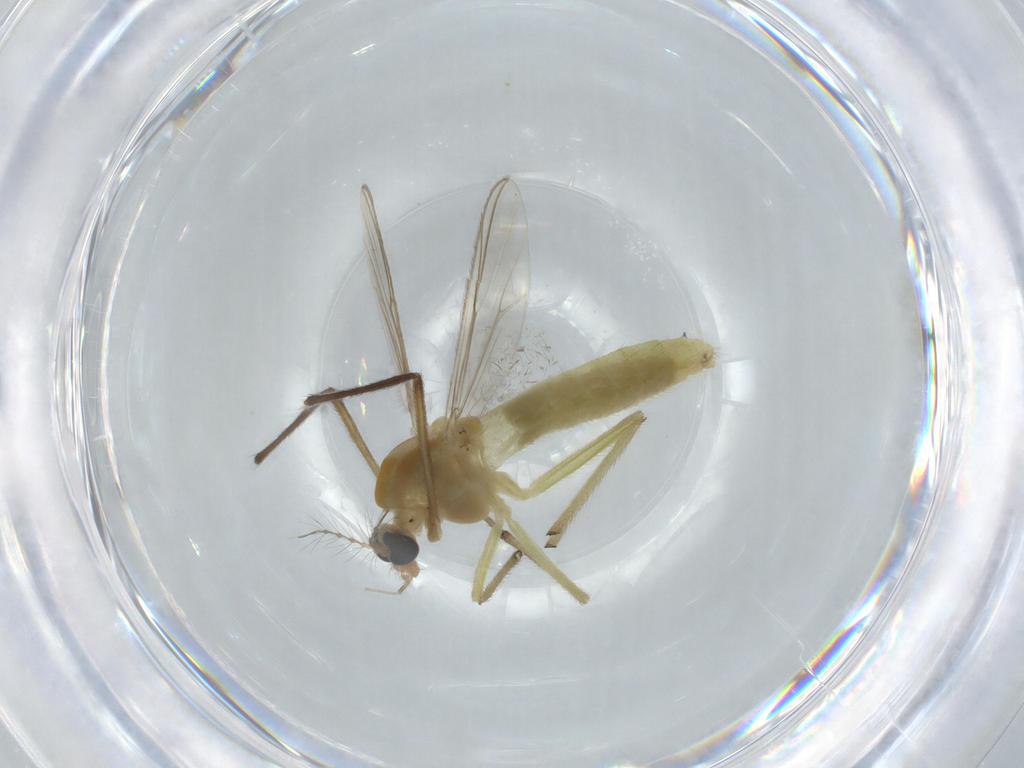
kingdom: Animalia
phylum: Arthropoda
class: Insecta
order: Diptera
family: Chironomidae
